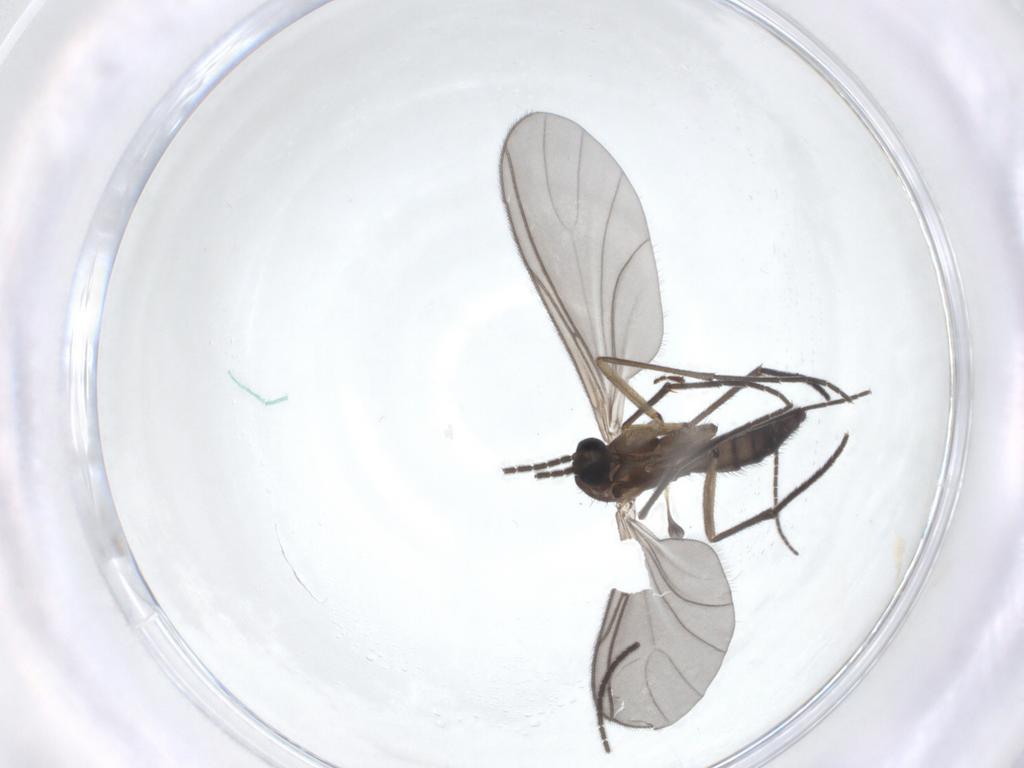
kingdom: Animalia
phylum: Arthropoda
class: Insecta
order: Diptera
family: Sciaridae
